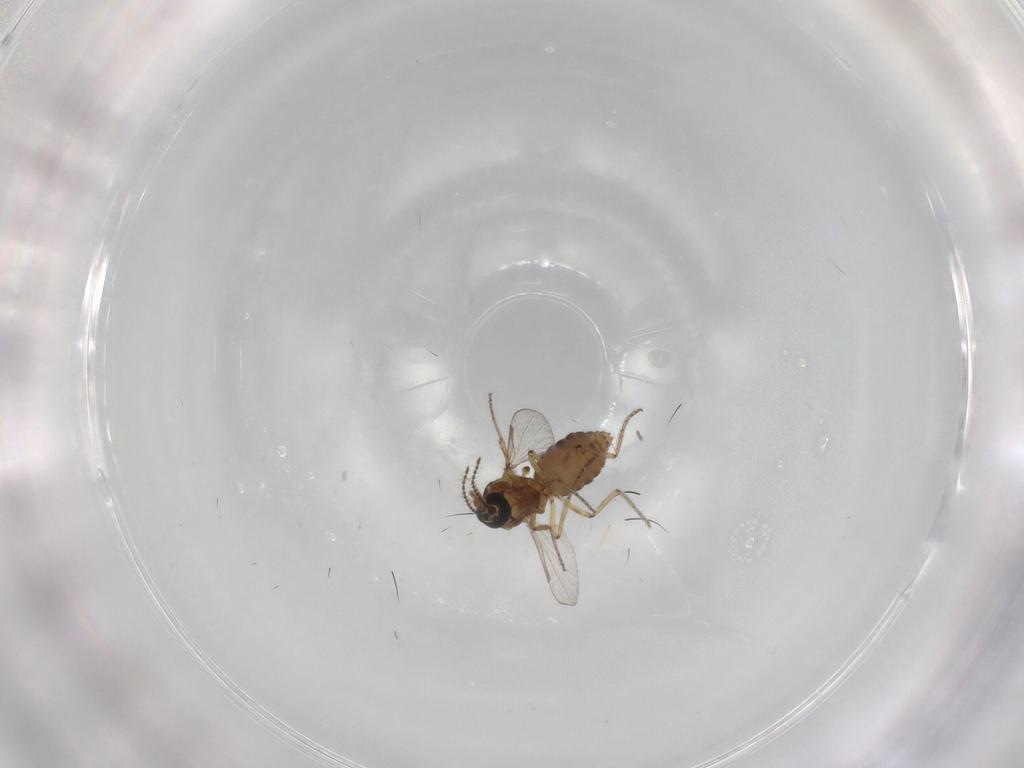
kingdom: Animalia
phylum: Arthropoda
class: Insecta
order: Diptera
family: Ceratopogonidae
